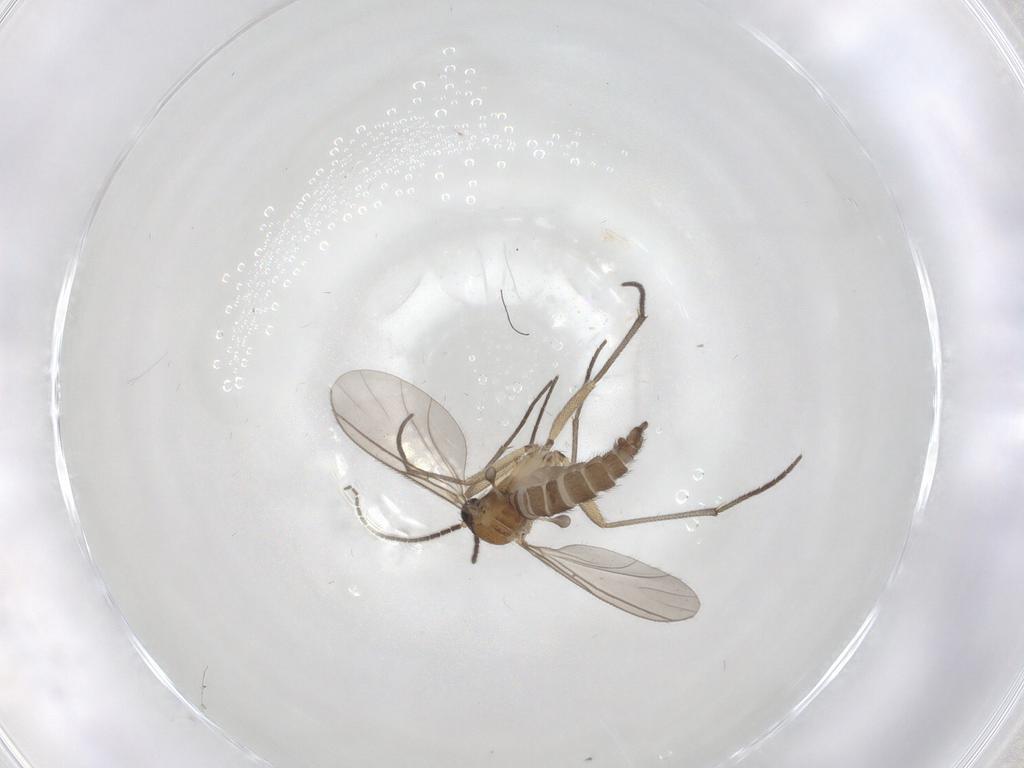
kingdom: Animalia
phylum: Arthropoda
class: Insecta
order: Diptera
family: Sciaridae
